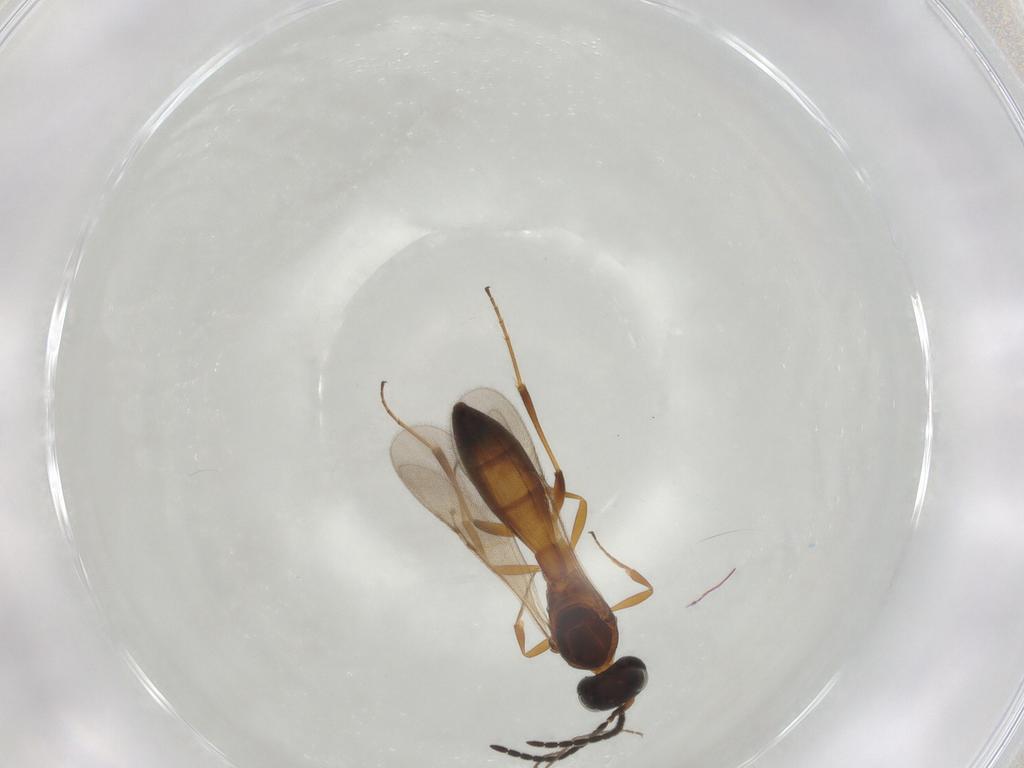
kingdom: Animalia
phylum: Arthropoda
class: Insecta
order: Hymenoptera
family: Scelionidae
